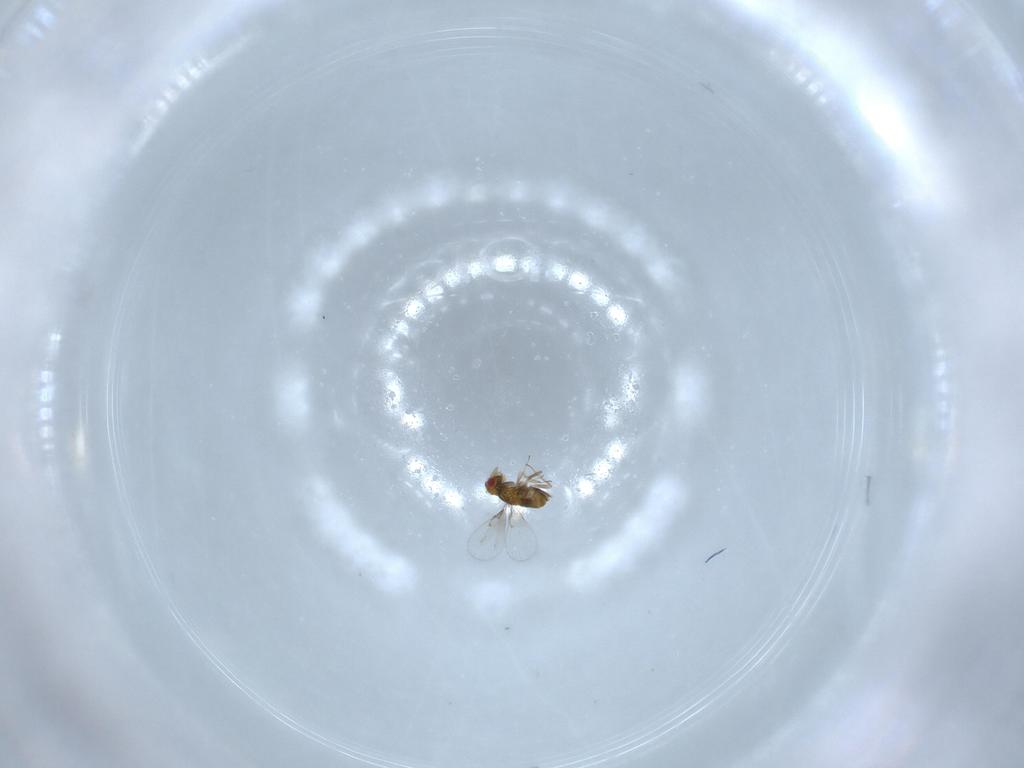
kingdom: Animalia
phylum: Arthropoda
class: Insecta
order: Hymenoptera
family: Trichogrammatidae
